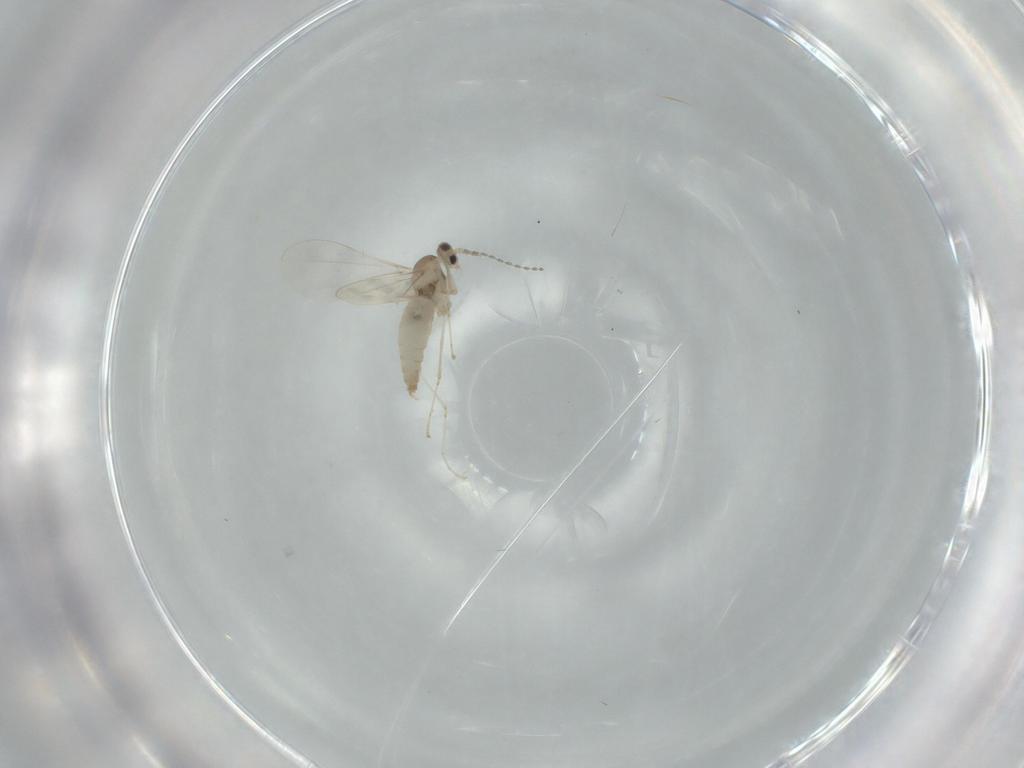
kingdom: Animalia
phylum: Arthropoda
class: Insecta
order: Diptera
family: Cecidomyiidae
